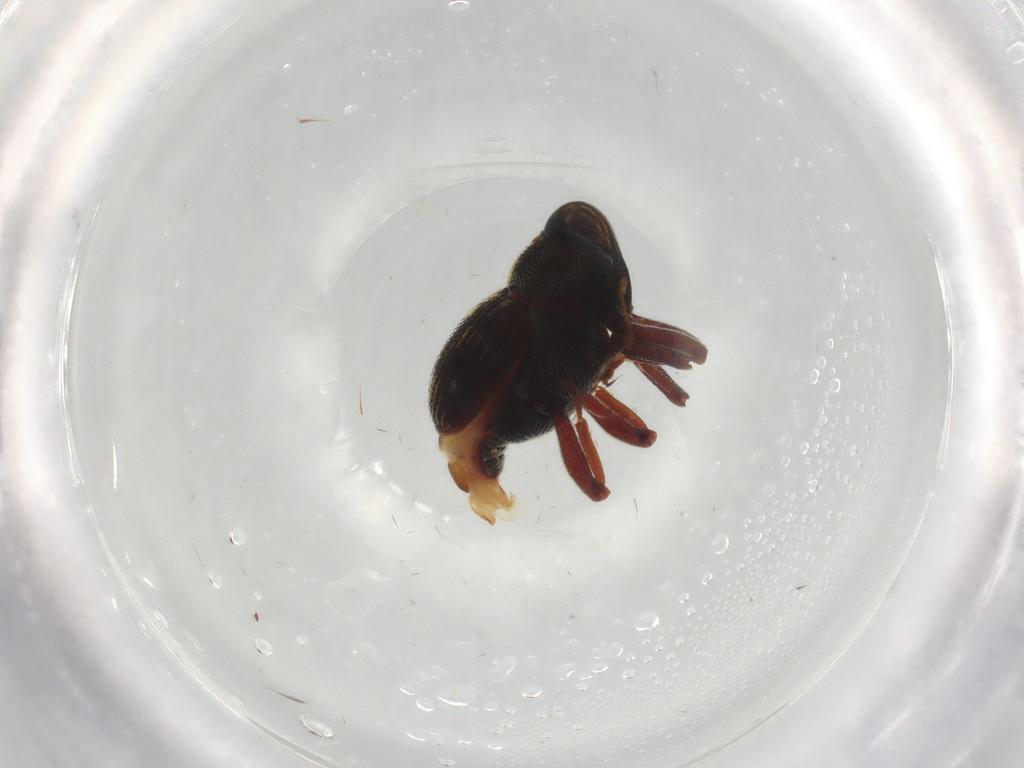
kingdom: Animalia
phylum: Arthropoda
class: Insecta
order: Coleoptera
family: Curculionidae
